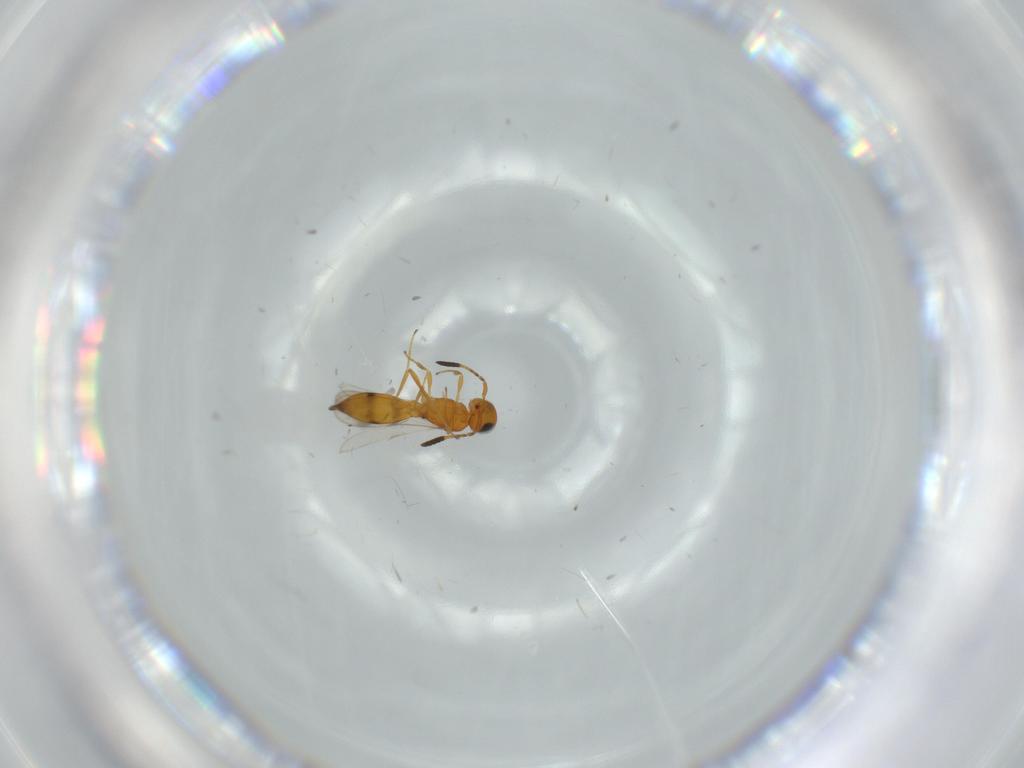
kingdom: Animalia
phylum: Arthropoda
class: Insecta
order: Hymenoptera
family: Scelionidae
